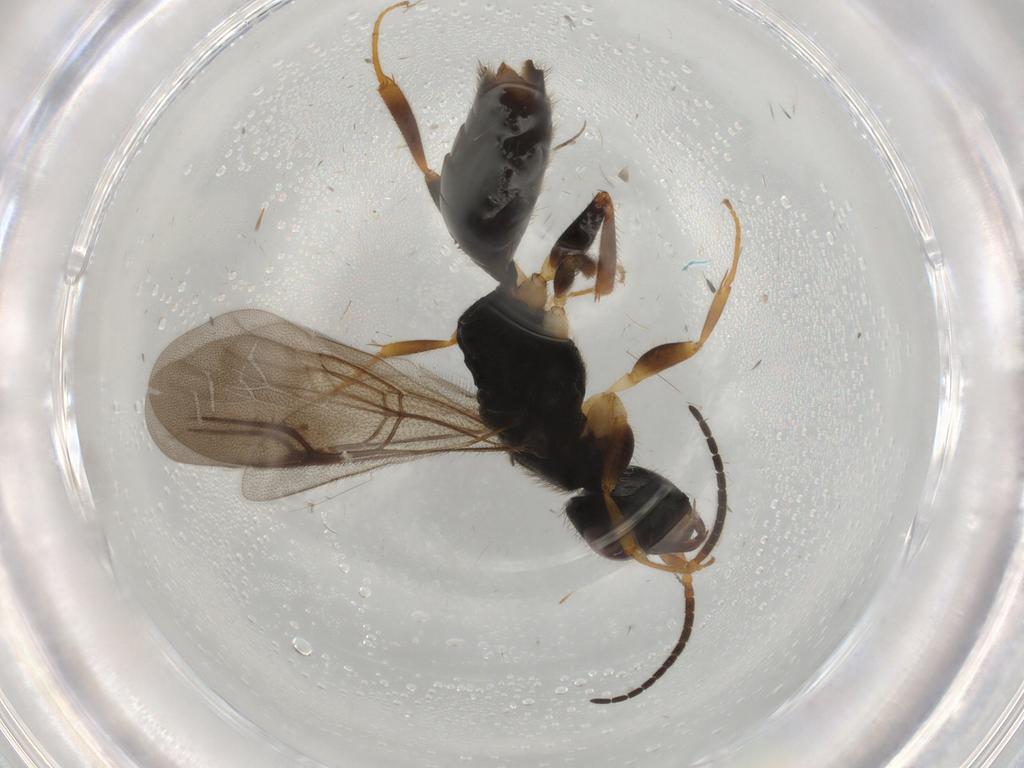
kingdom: Animalia
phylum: Arthropoda
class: Insecta
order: Hymenoptera
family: Bethylidae
